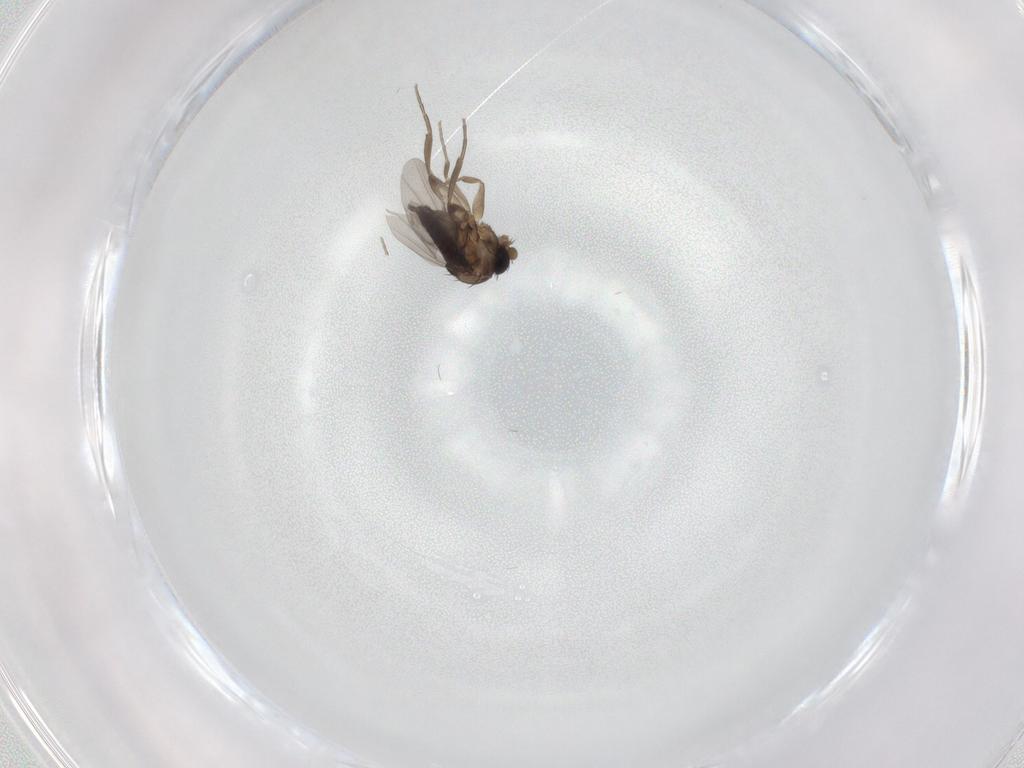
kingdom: Animalia
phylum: Arthropoda
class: Insecta
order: Diptera
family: Phoridae
